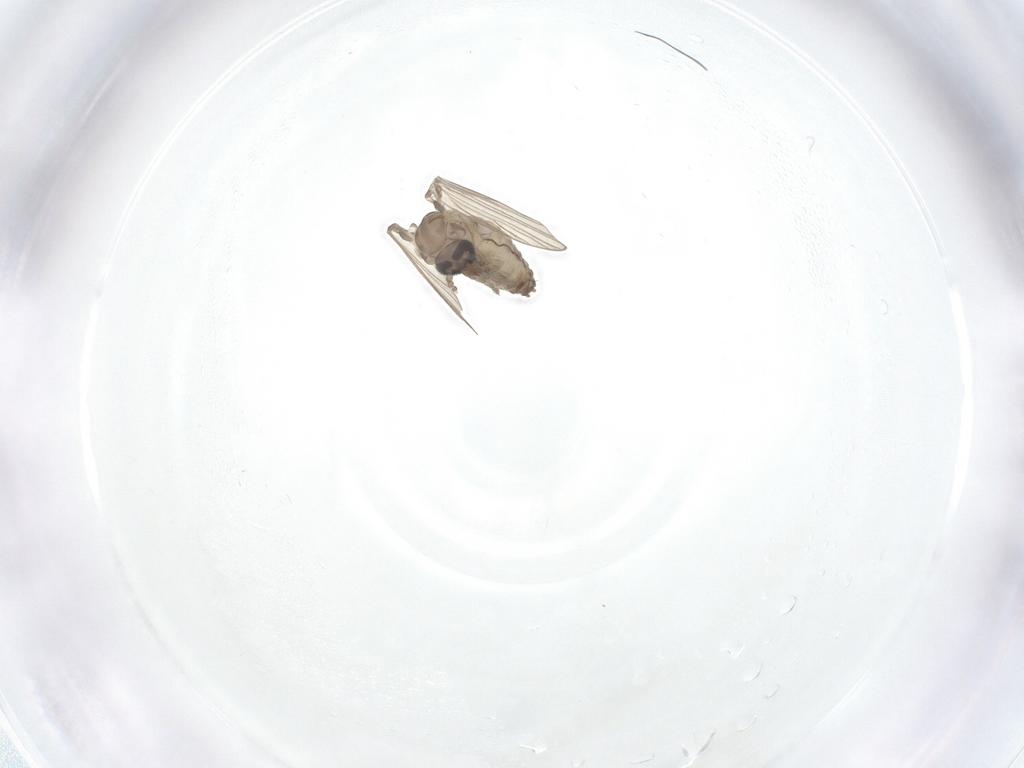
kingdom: Animalia
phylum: Arthropoda
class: Insecta
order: Diptera
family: Psychodidae
